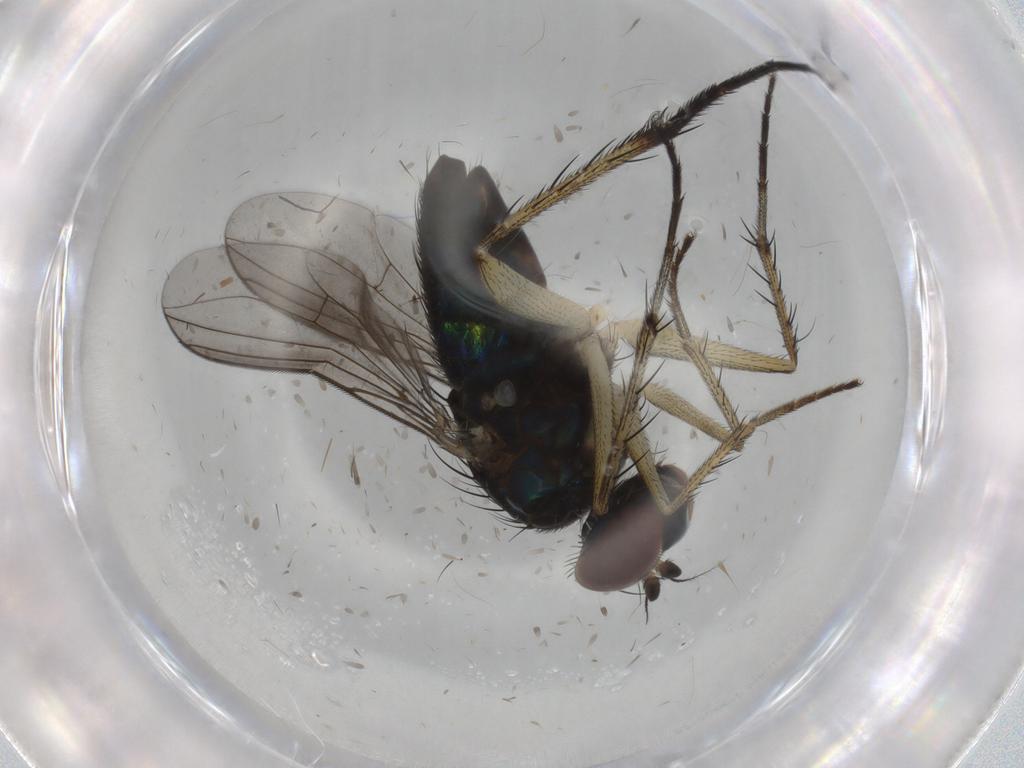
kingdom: Animalia
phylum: Arthropoda
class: Insecta
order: Diptera
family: Dolichopodidae
